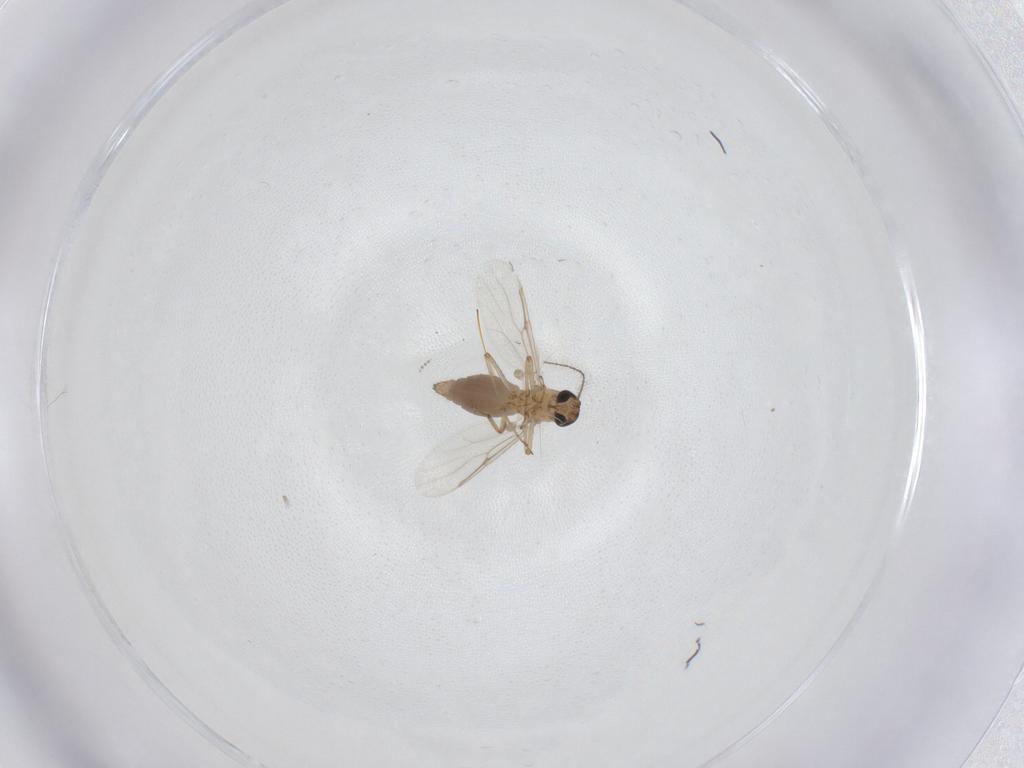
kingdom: Animalia
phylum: Arthropoda
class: Insecta
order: Diptera
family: Ceratopogonidae
